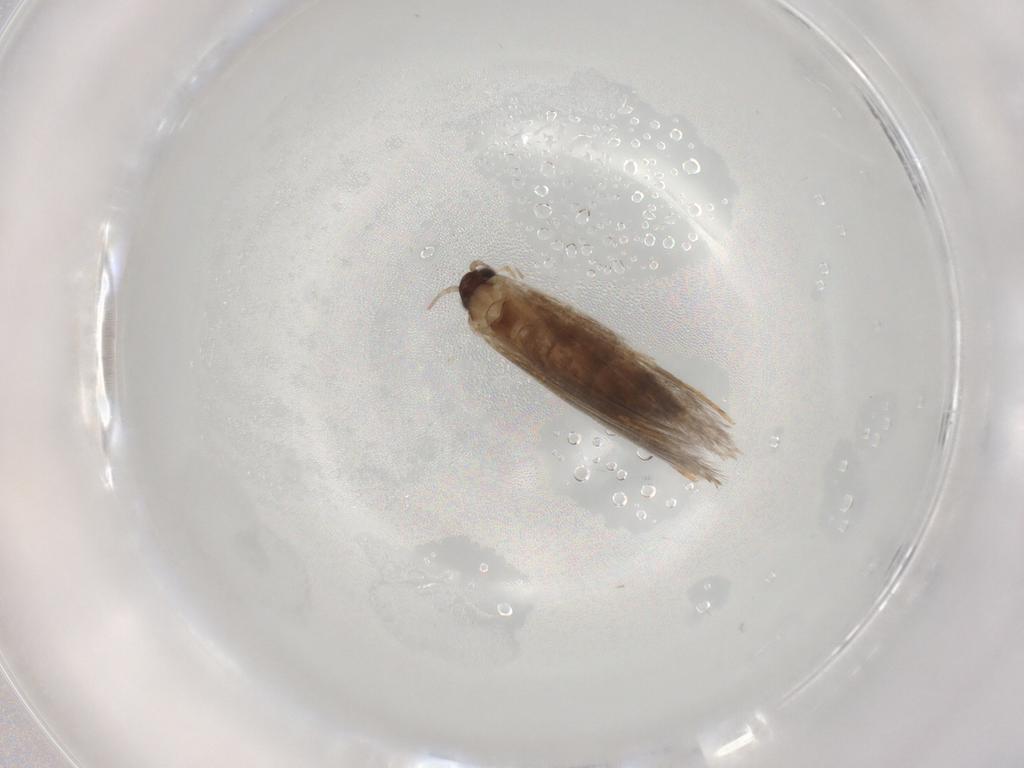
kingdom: Animalia
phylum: Arthropoda
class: Insecta
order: Lepidoptera
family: Tineidae
